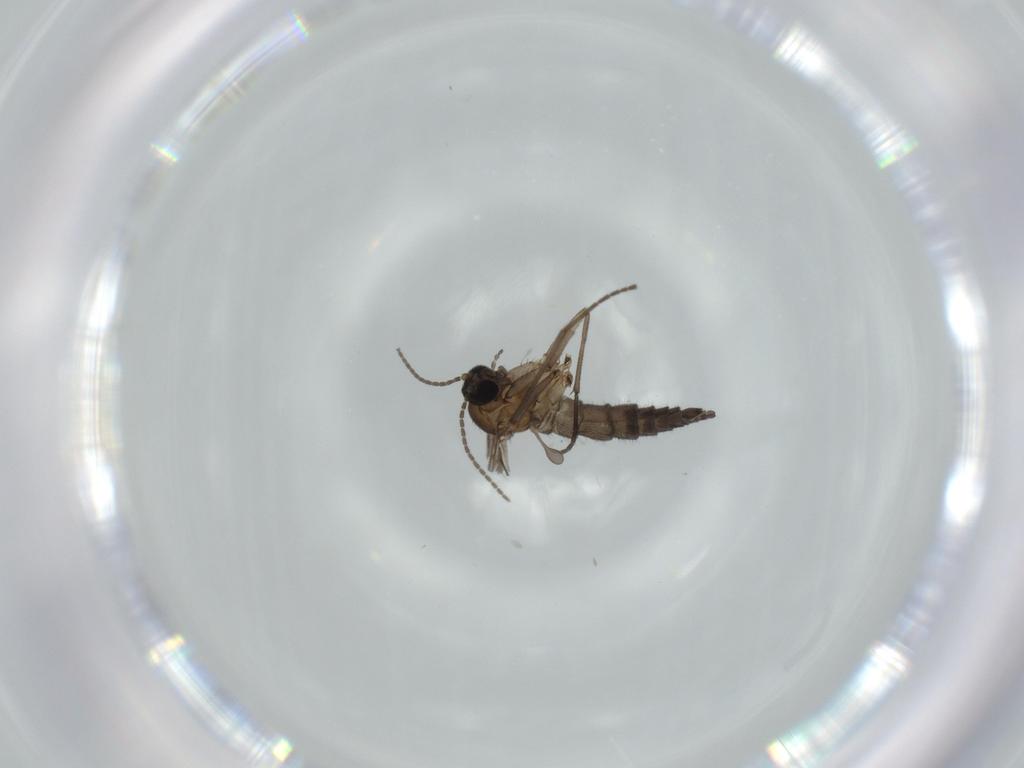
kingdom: Animalia
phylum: Arthropoda
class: Insecta
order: Diptera
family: Sciaridae
